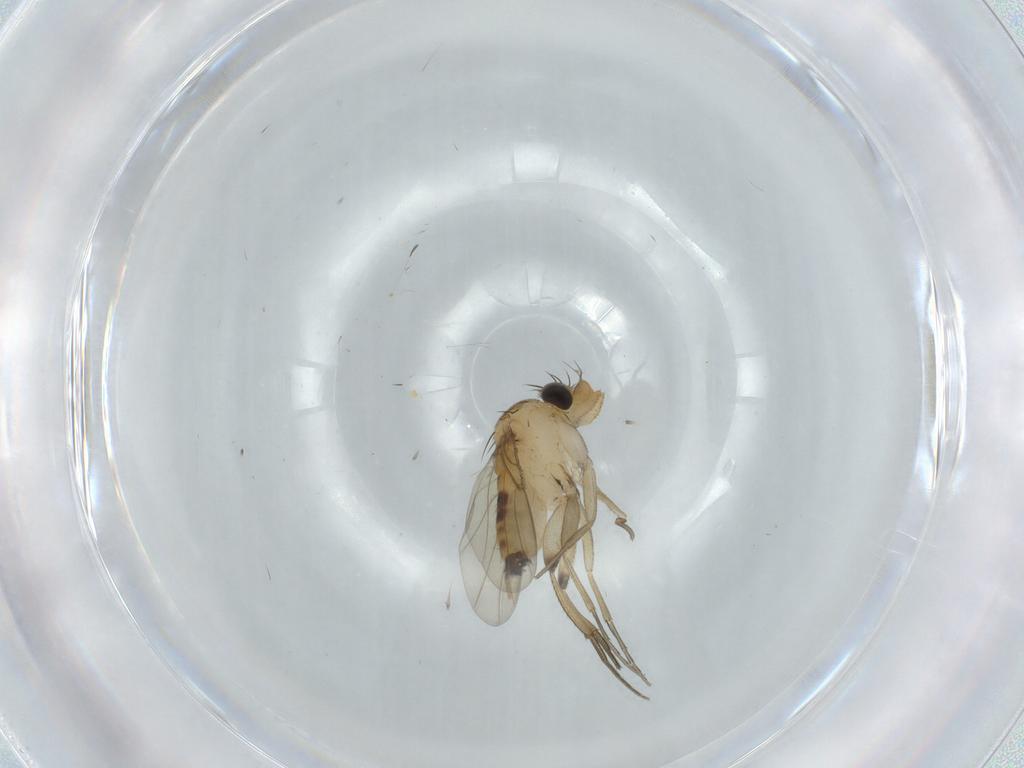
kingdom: Animalia
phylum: Arthropoda
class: Insecta
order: Diptera
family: Phoridae
